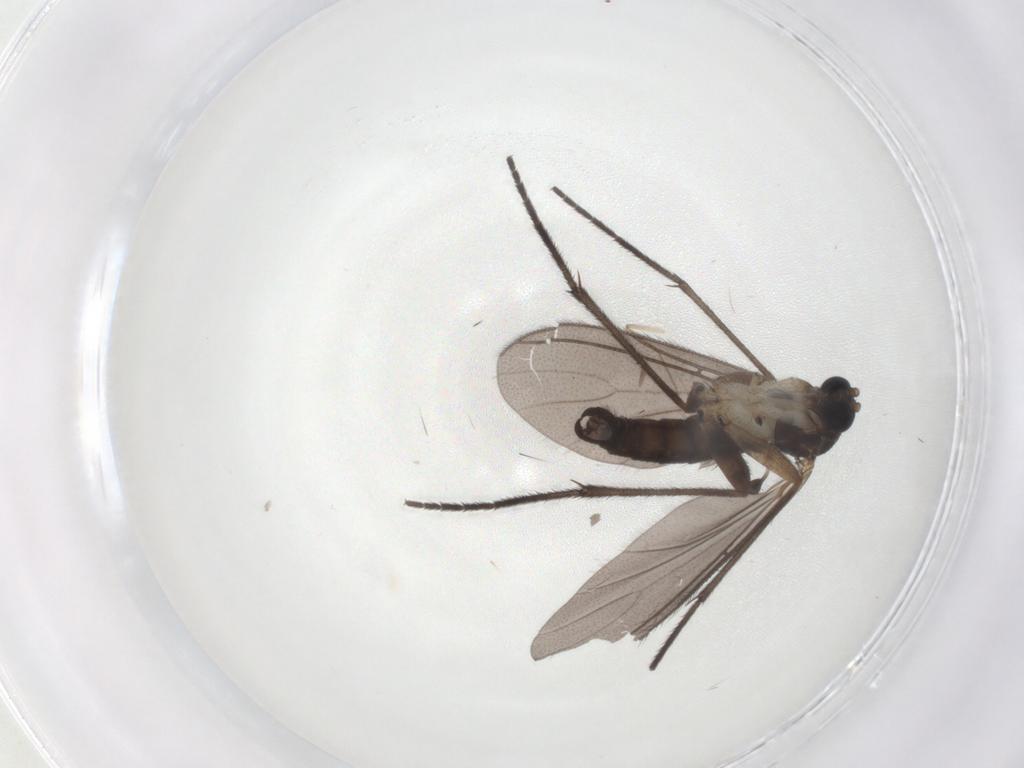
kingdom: Animalia
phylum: Arthropoda
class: Insecta
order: Diptera
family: Sciaridae
